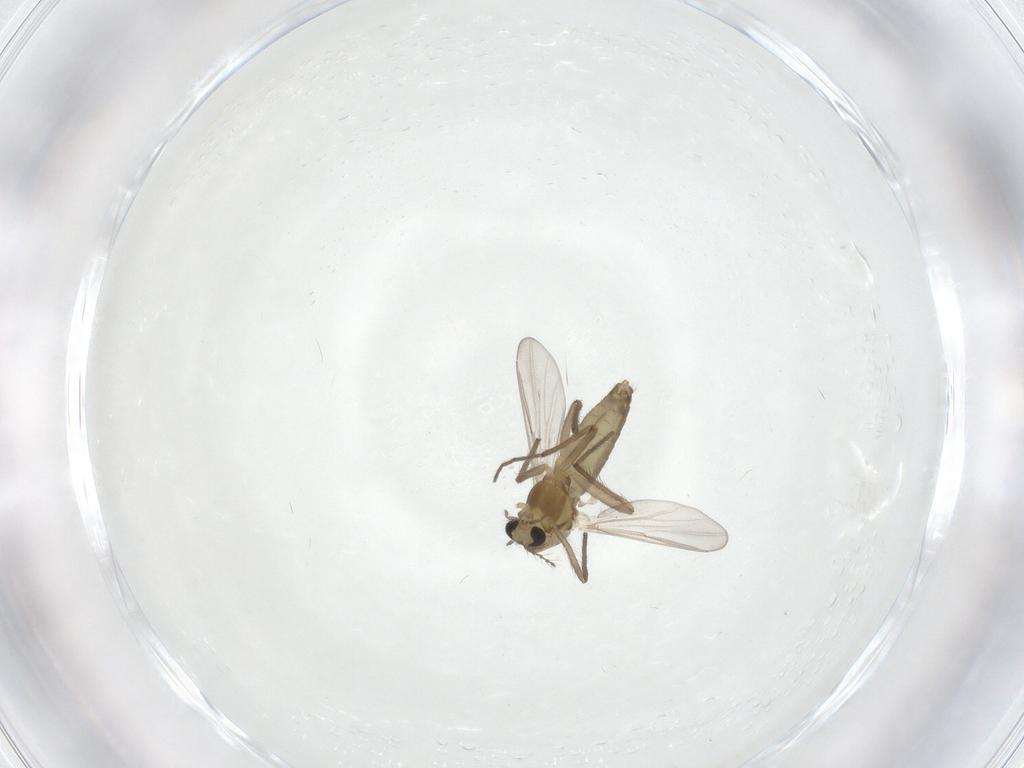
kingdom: Animalia
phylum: Arthropoda
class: Insecta
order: Diptera
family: Chironomidae
